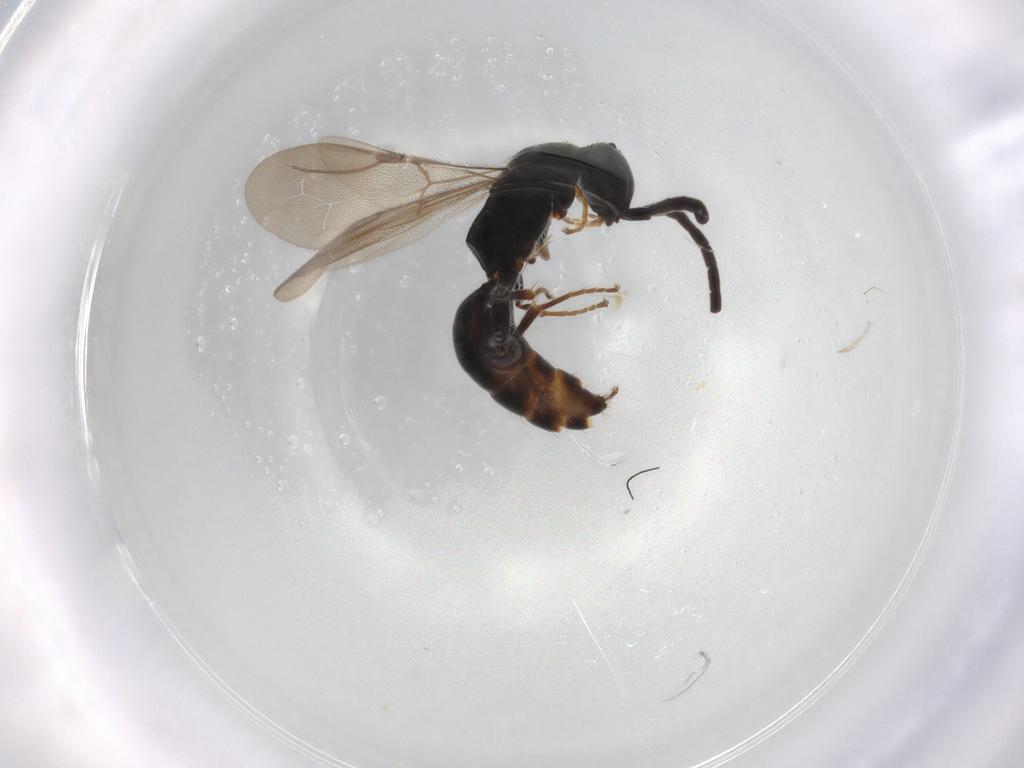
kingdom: Animalia
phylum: Arthropoda
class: Insecta
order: Hymenoptera
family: Bethylidae
